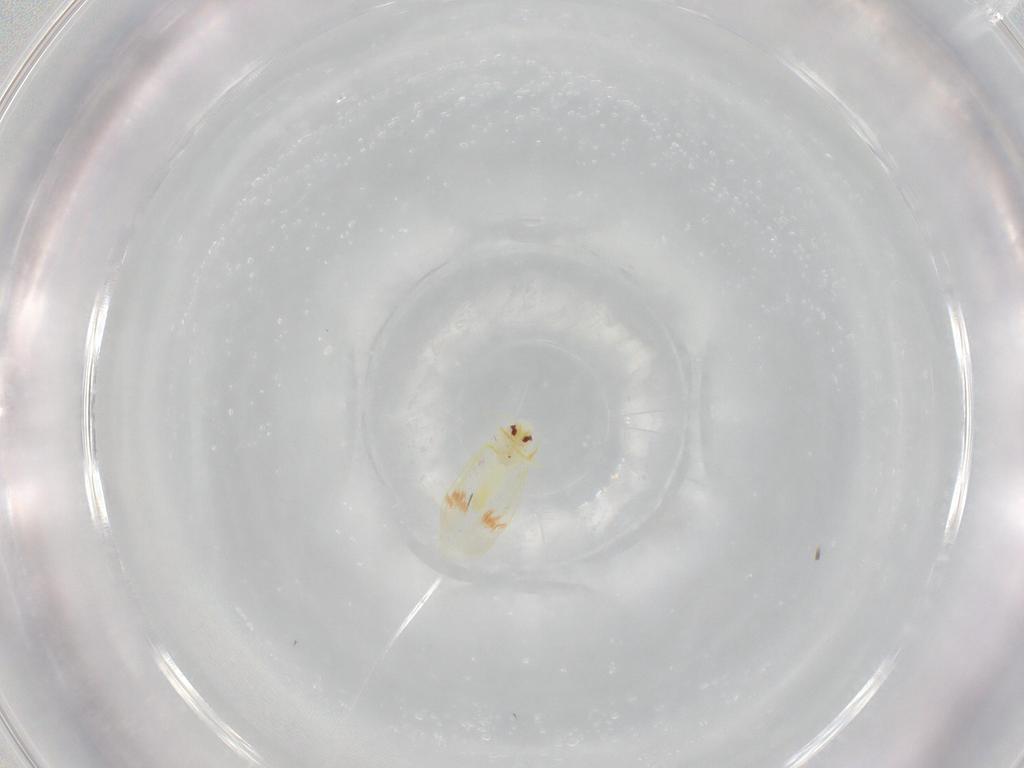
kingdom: Animalia
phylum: Arthropoda
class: Insecta
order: Hemiptera
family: Aleyrodidae
